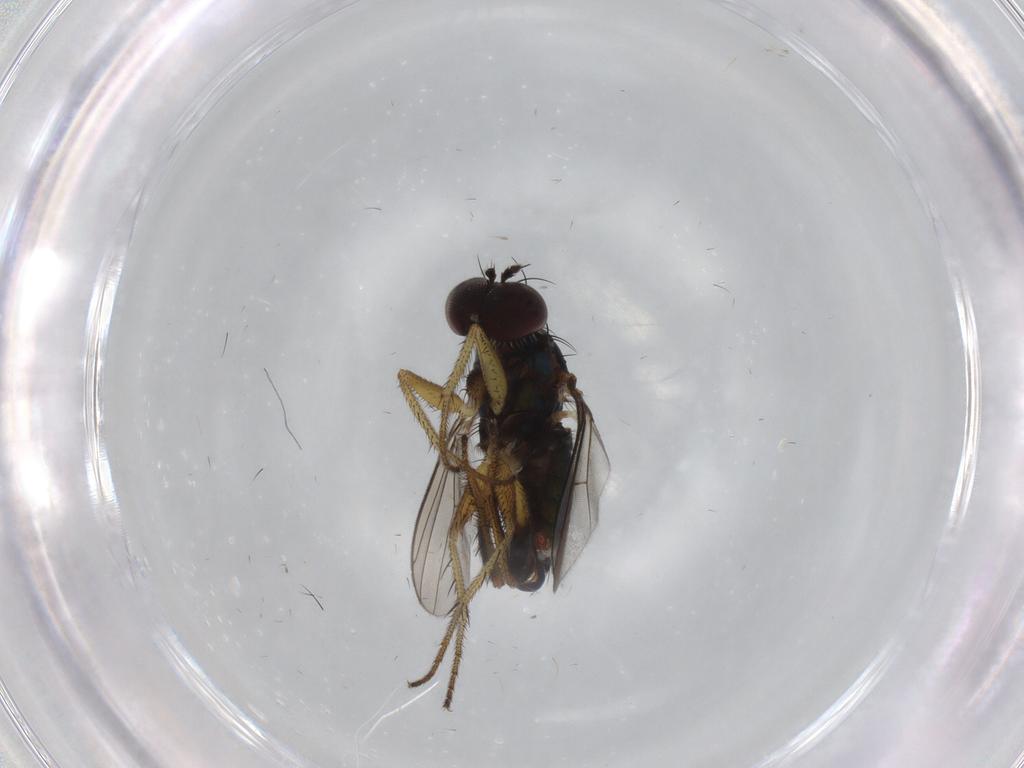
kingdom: Animalia
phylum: Arthropoda
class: Insecta
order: Diptera
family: Dolichopodidae
